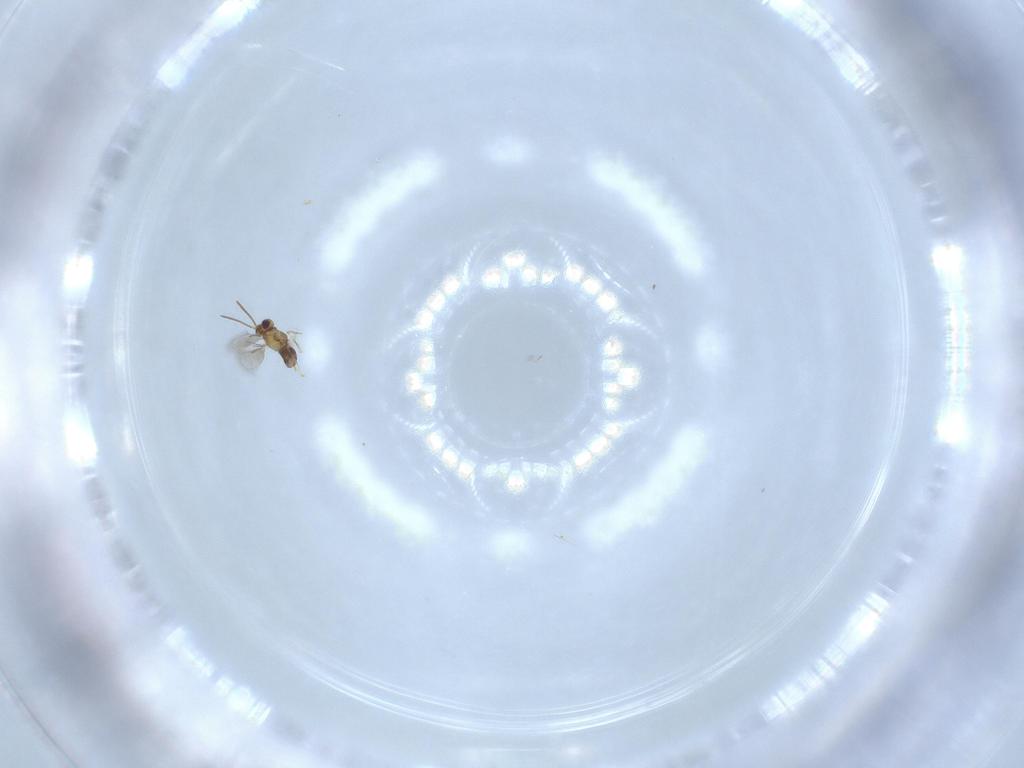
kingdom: Animalia
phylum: Arthropoda
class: Insecta
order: Hymenoptera
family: Aphelinidae
